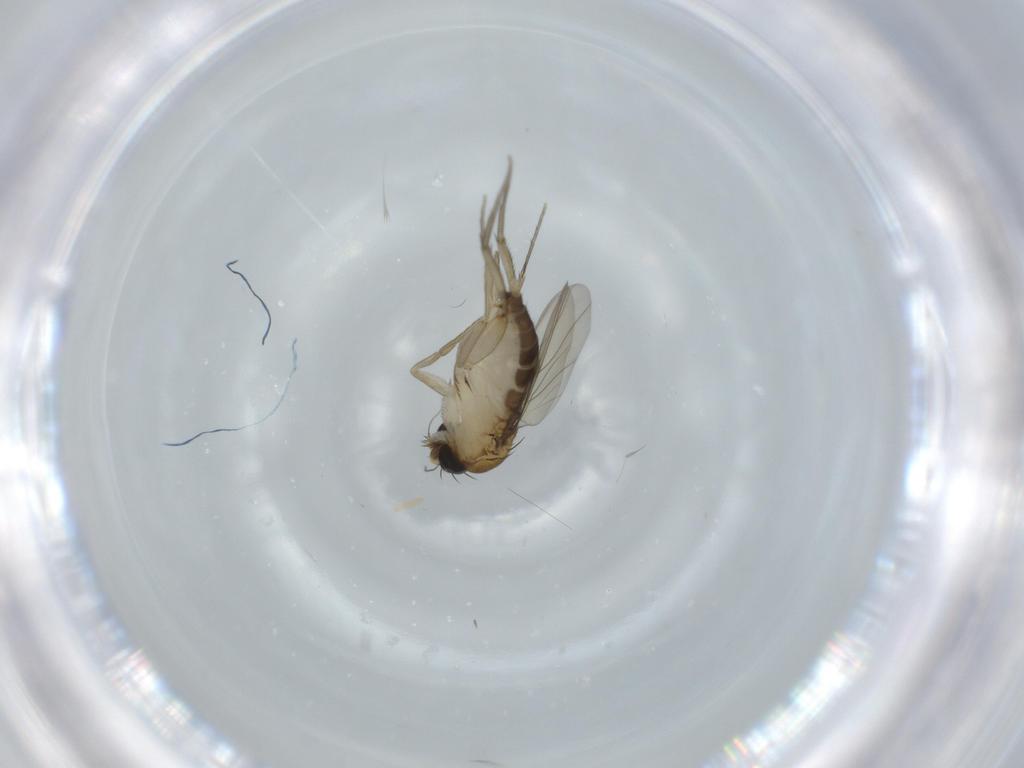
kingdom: Animalia
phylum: Arthropoda
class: Insecta
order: Diptera
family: Phoridae
